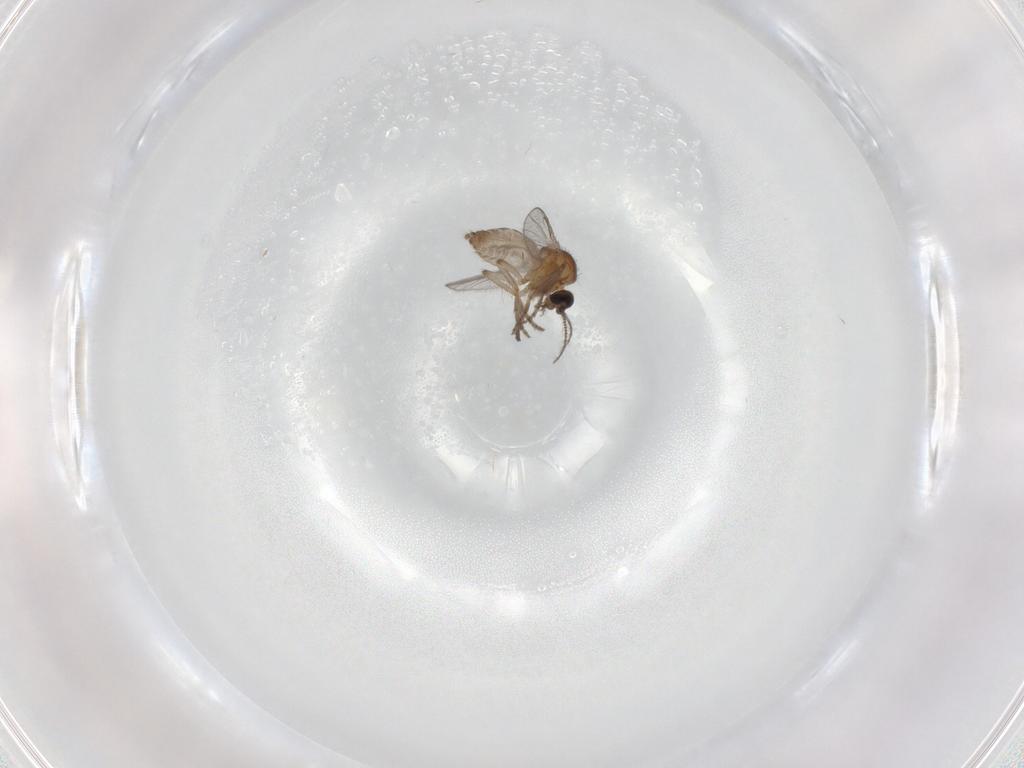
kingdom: Animalia
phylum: Arthropoda
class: Insecta
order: Diptera
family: Ceratopogonidae
